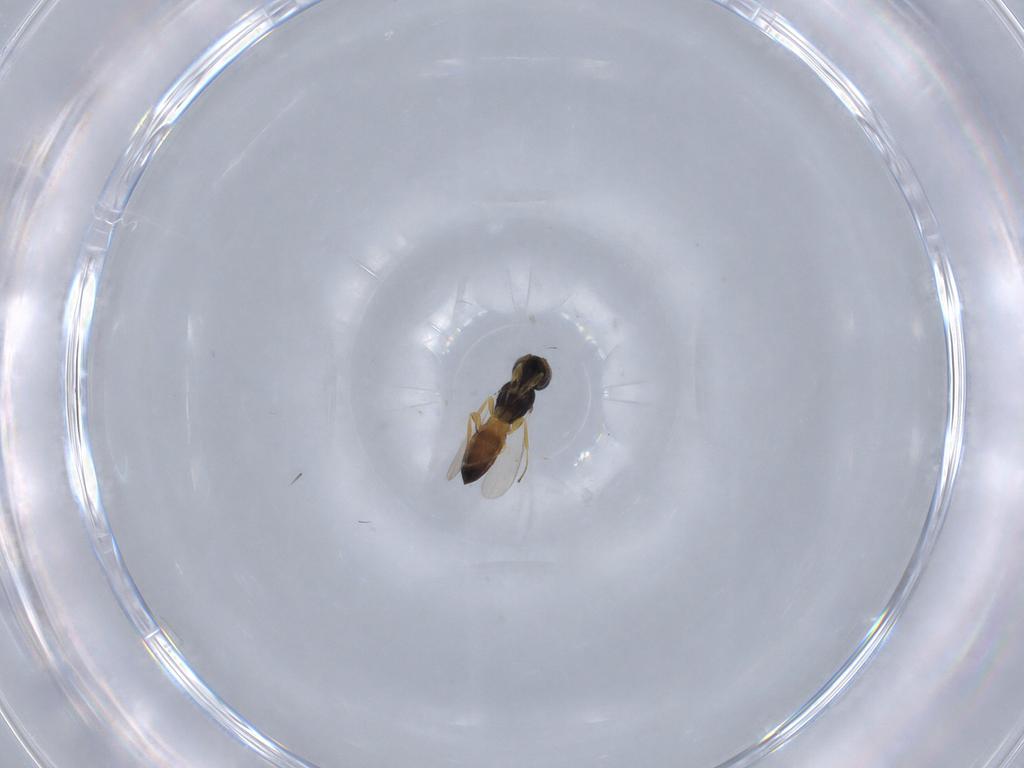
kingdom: Animalia
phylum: Arthropoda
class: Insecta
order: Hymenoptera
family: Scelionidae
